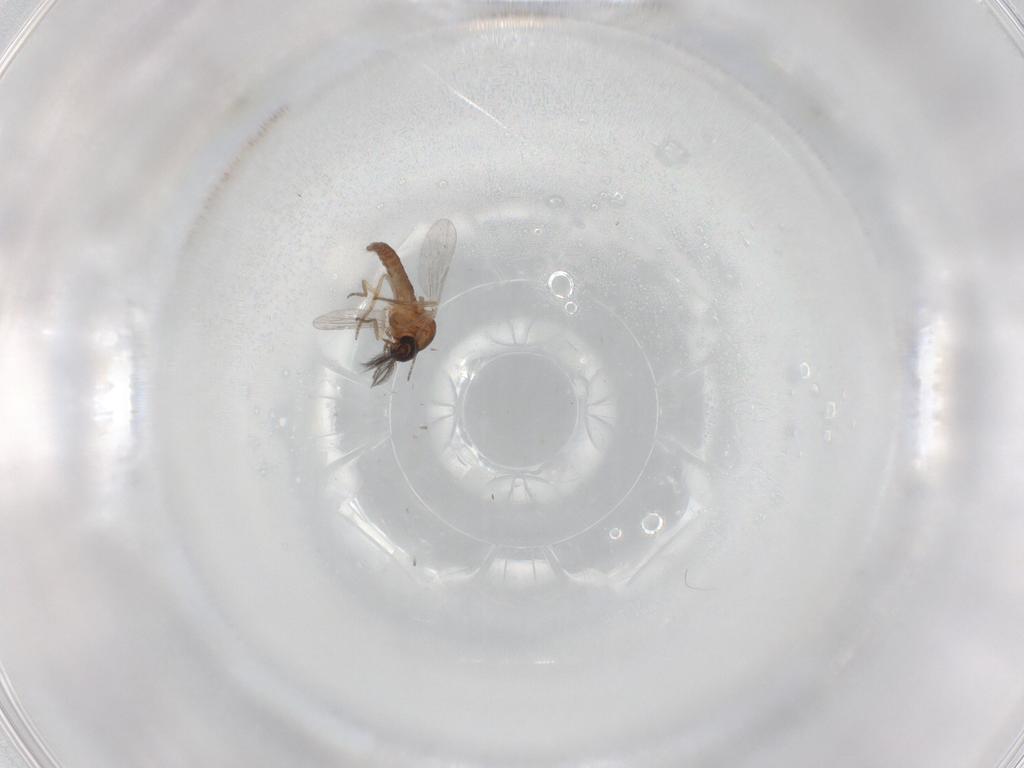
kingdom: Animalia
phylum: Arthropoda
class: Insecta
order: Diptera
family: Ceratopogonidae
